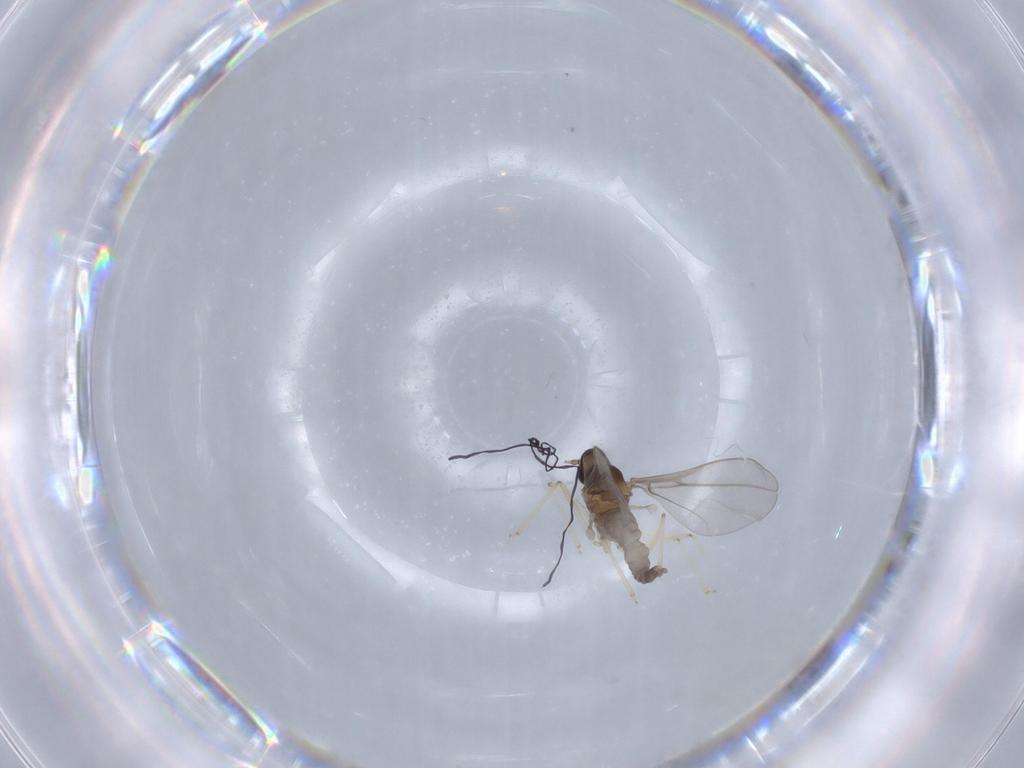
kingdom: Animalia
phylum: Arthropoda
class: Insecta
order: Diptera
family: Cecidomyiidae
